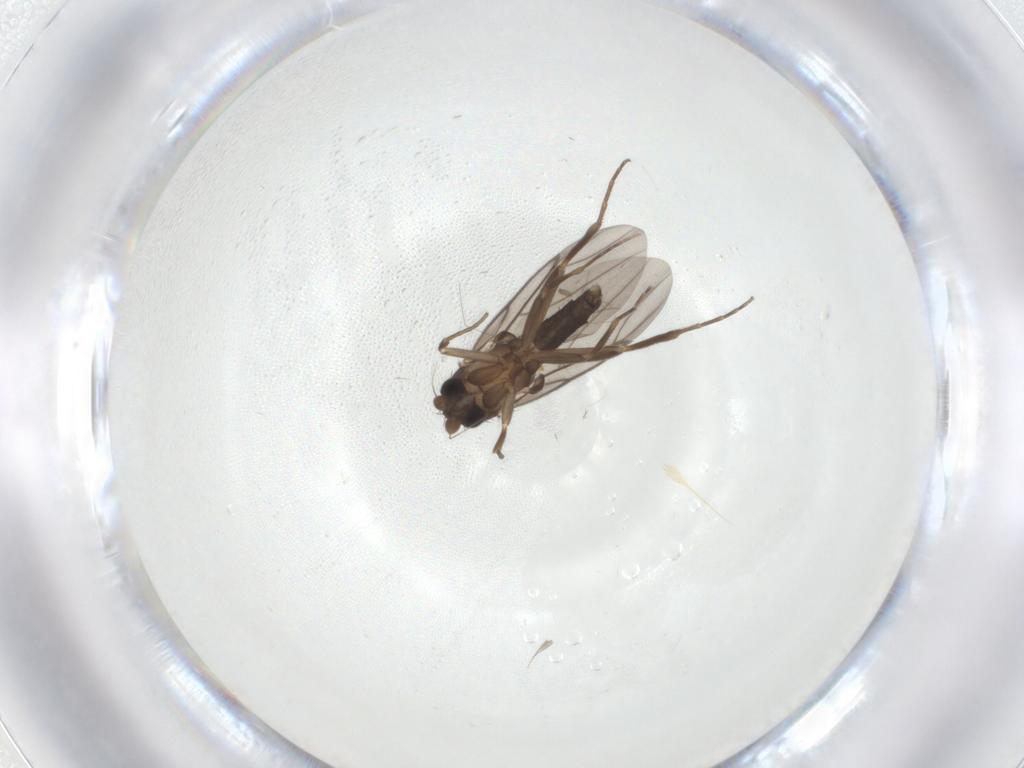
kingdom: Animalia
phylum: Arthropoda
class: Insecta
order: Diptera
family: Phoridae
